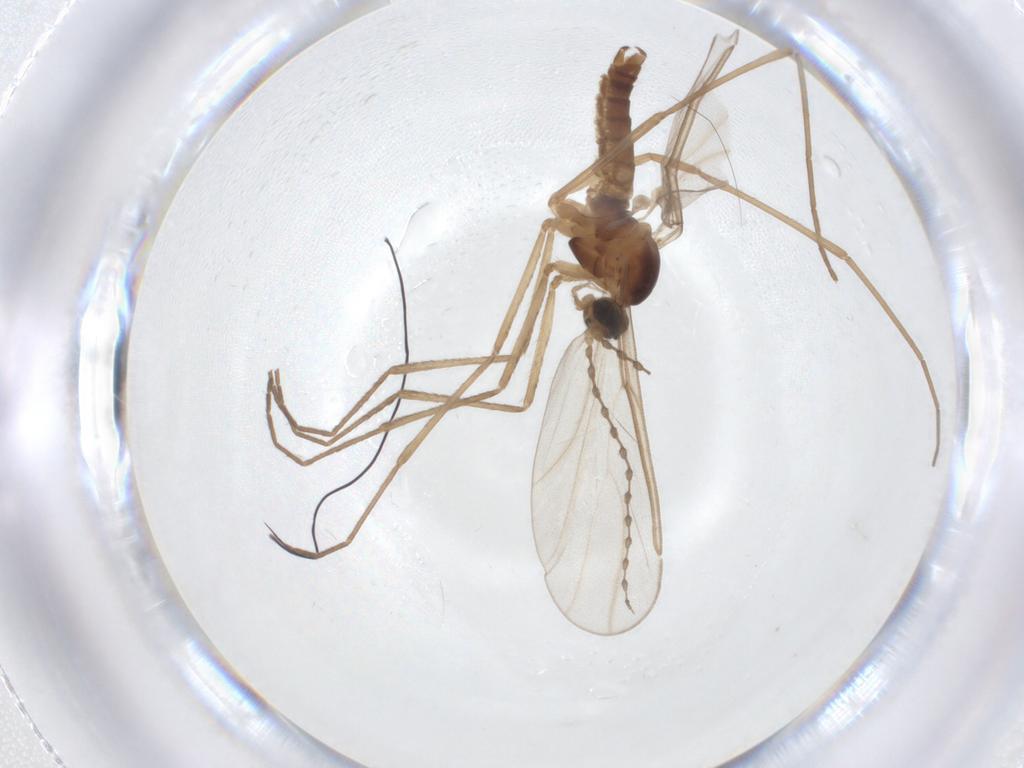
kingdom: Animalia
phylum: Arthropoda
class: Insecta
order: Diptera
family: Cecidomyiidae
